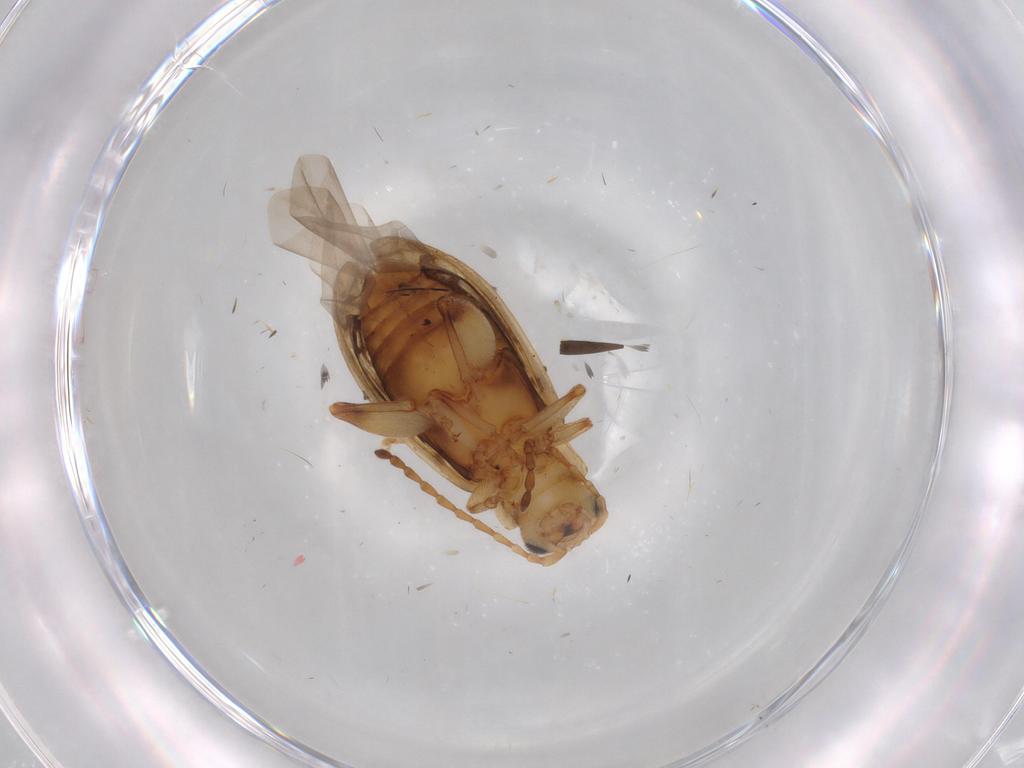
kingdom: Animalia
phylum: Arthropoda
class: Insecta
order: Coleoptera
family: Chrysomelidae
